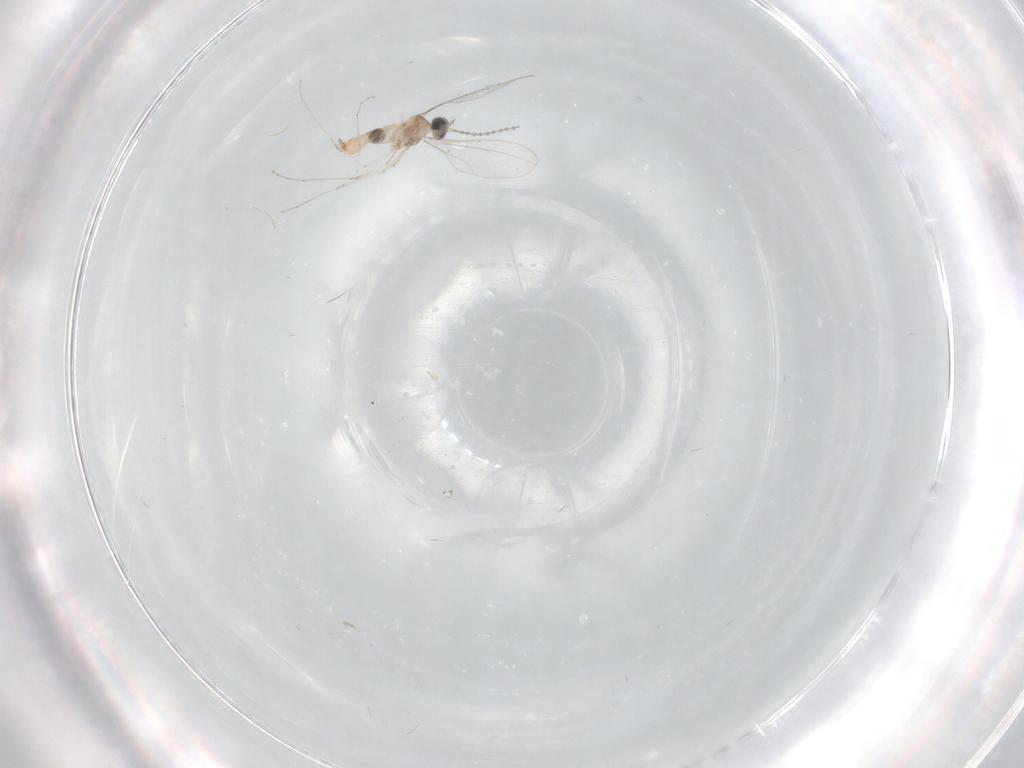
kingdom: Animalia
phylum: Arthropoda
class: Insecta
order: Diptera
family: Cecidomyiidae
